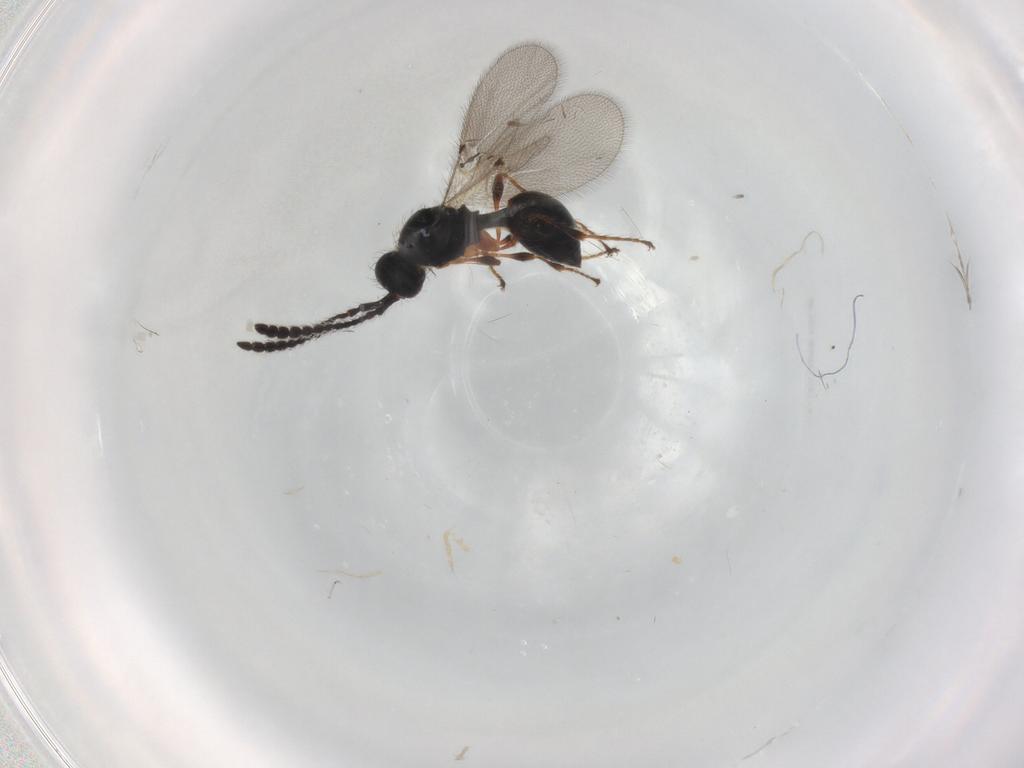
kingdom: Animalia
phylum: Arthropoda
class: Insecta
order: Hymenoptera
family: Diapriidae
